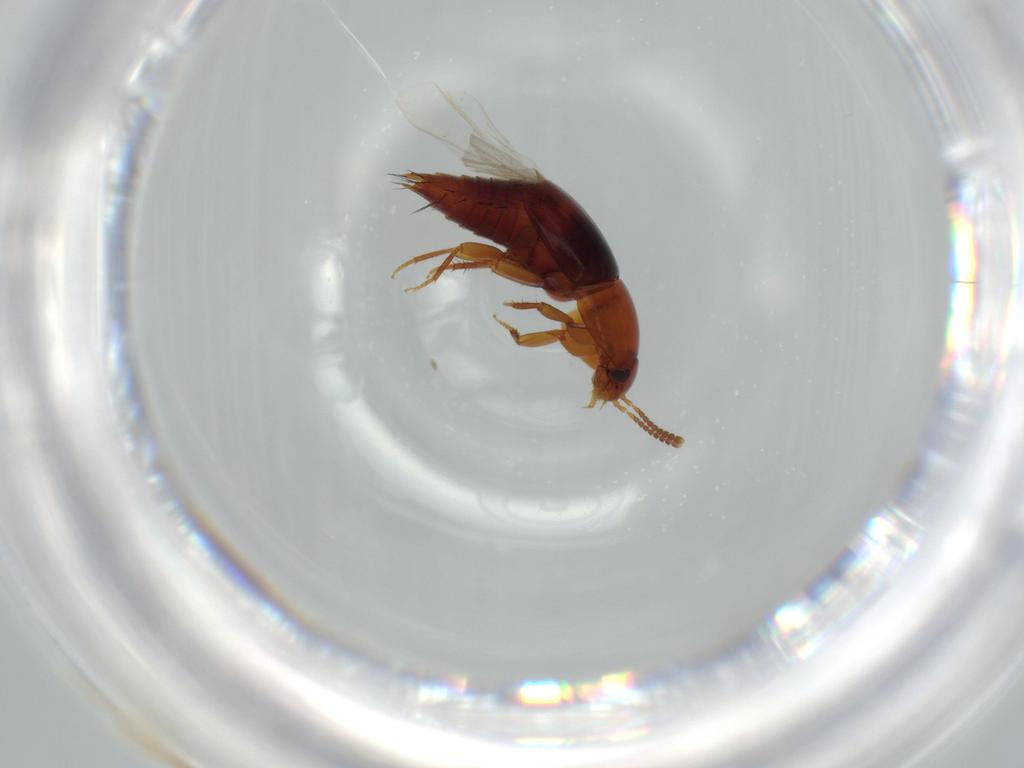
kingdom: Animalia
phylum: Arthropoda
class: Insecta
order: Coleoptera
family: Staphylinidae
